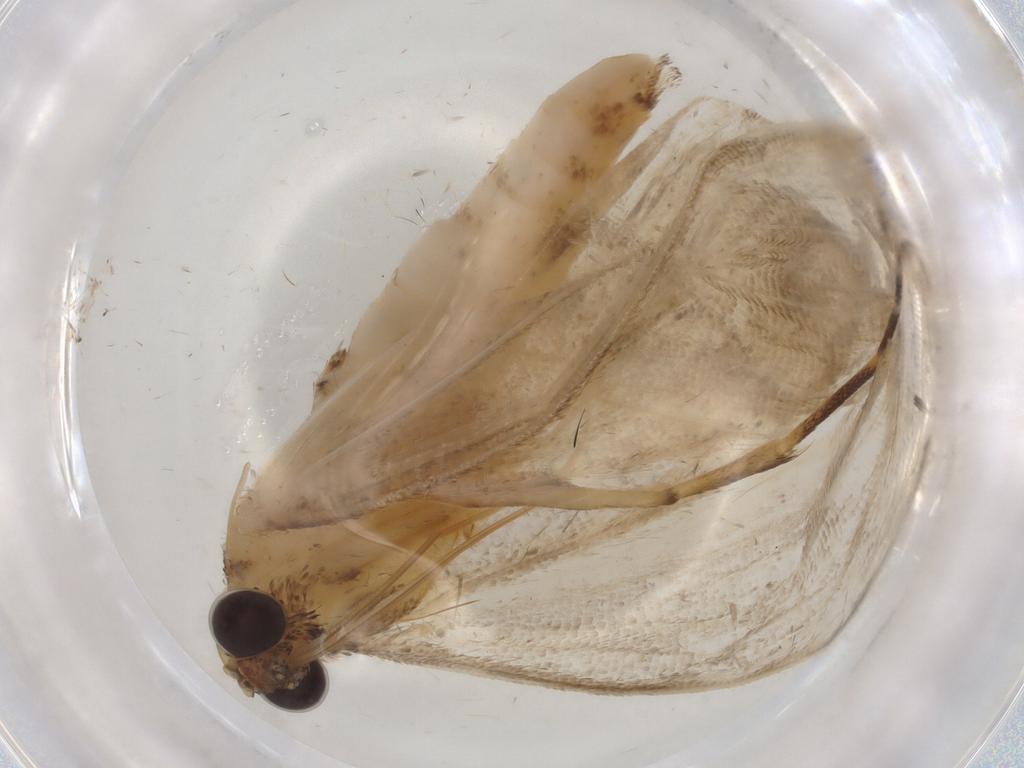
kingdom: Animalia
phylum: Arthropoda
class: Insecta
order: Lepidoptera
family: Geometridae
